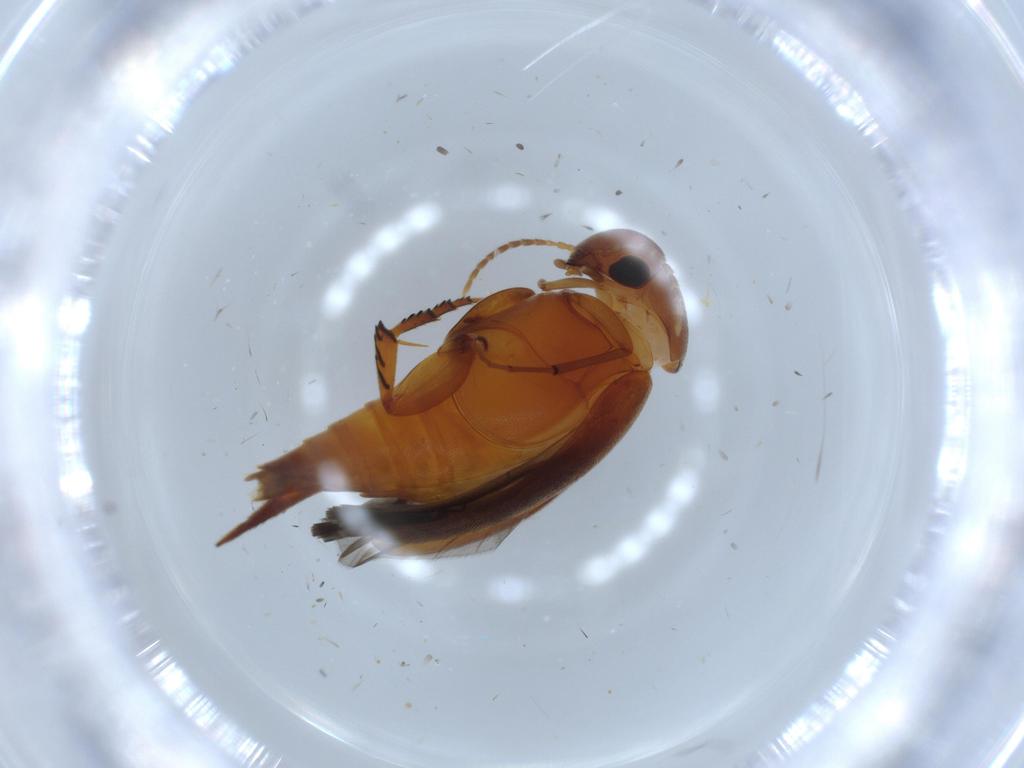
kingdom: Animalia
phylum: Arthropoda
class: Insecta
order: Coleoptera
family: Mordellidae
